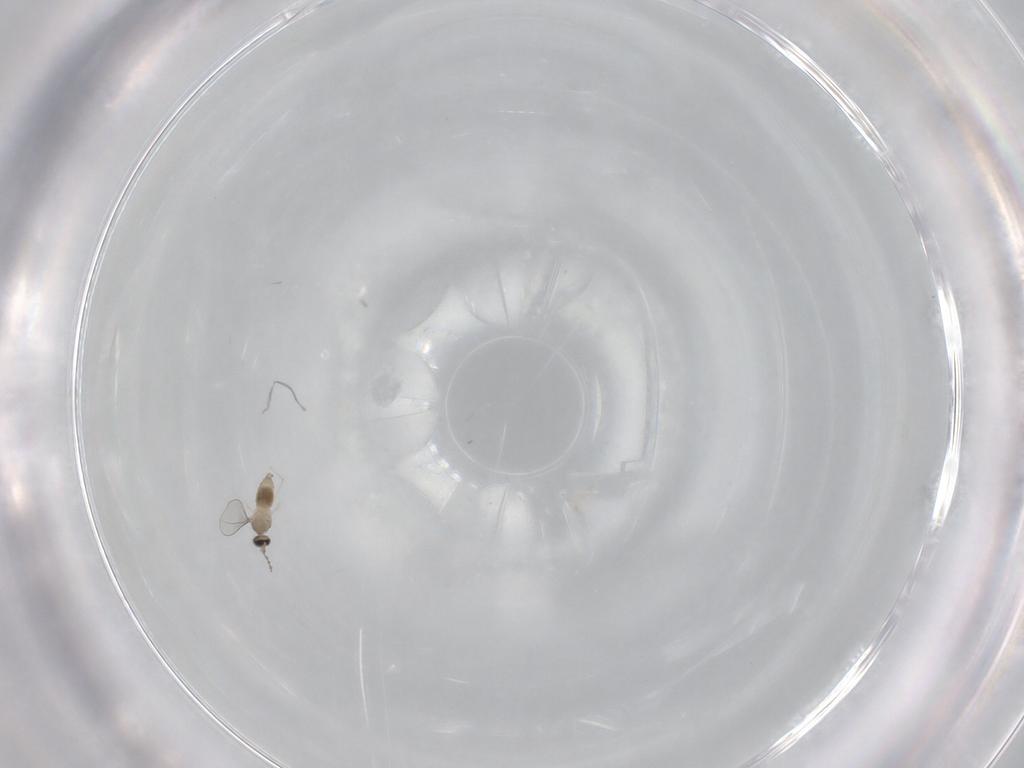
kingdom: Animalia
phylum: Arthropoda
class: Insecta
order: Diptera
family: Cecidomyiidae
